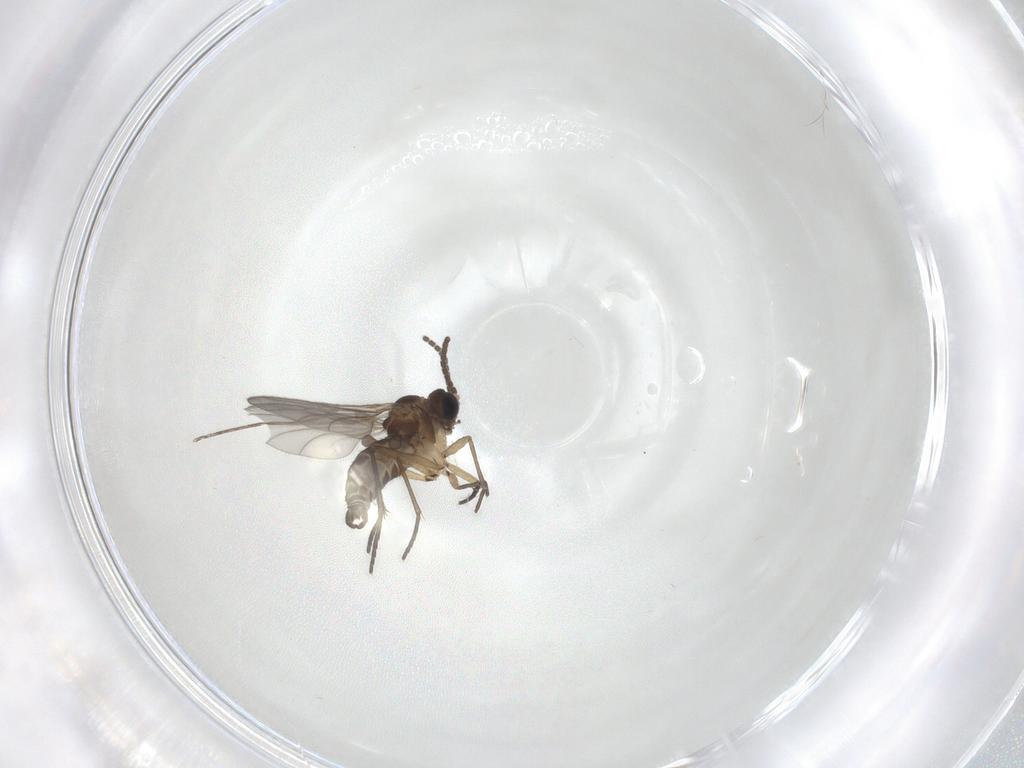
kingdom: Animalia
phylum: Arthropoda
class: Insecta
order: Diptera
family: Sciaridae
